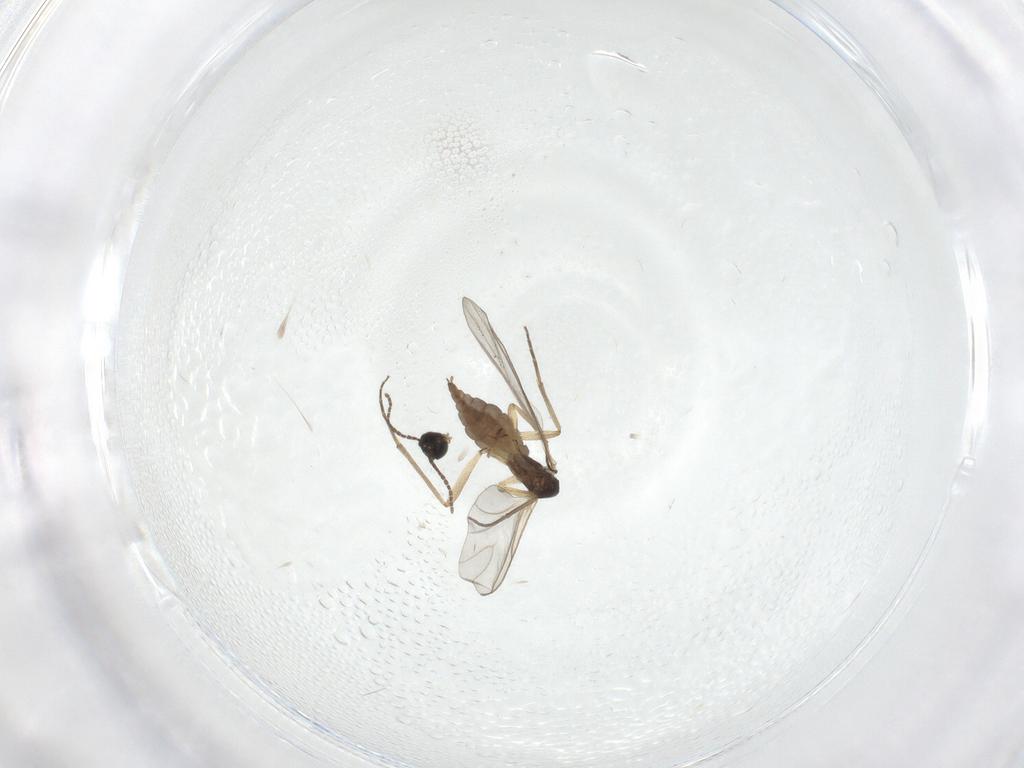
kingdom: Animalia
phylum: Arthropoda
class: Insecta
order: Diptera
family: Sciaridae
